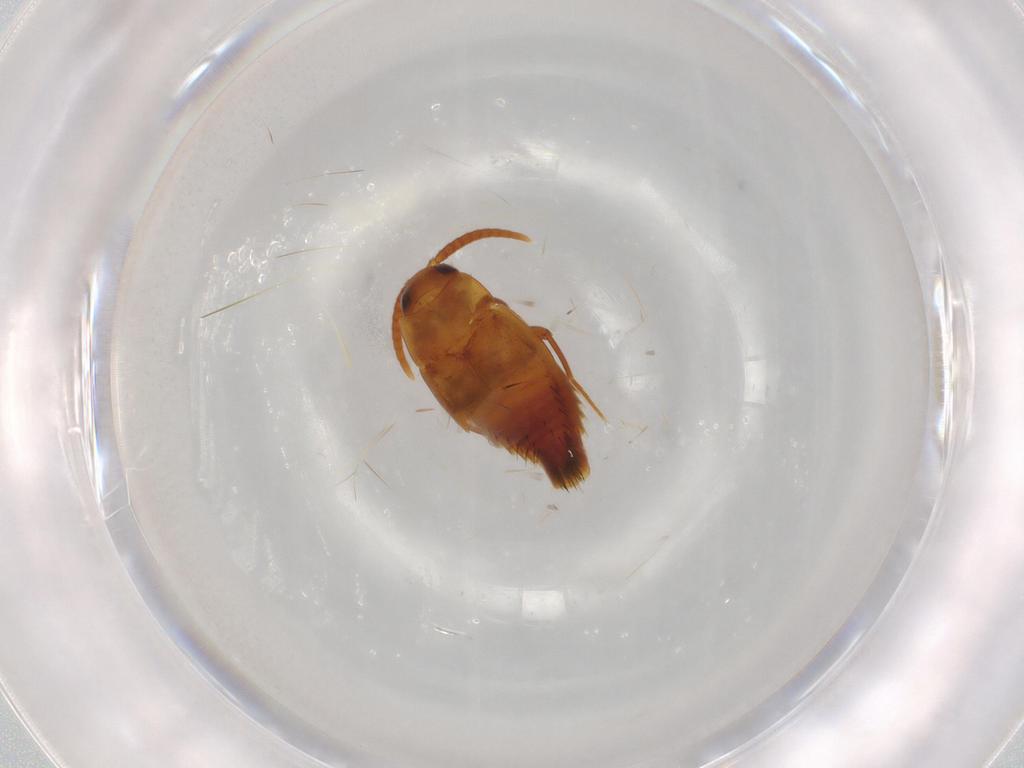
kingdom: Animalia
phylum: Arthropoda
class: Insecta
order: Coleoptera
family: Staphylinidae
